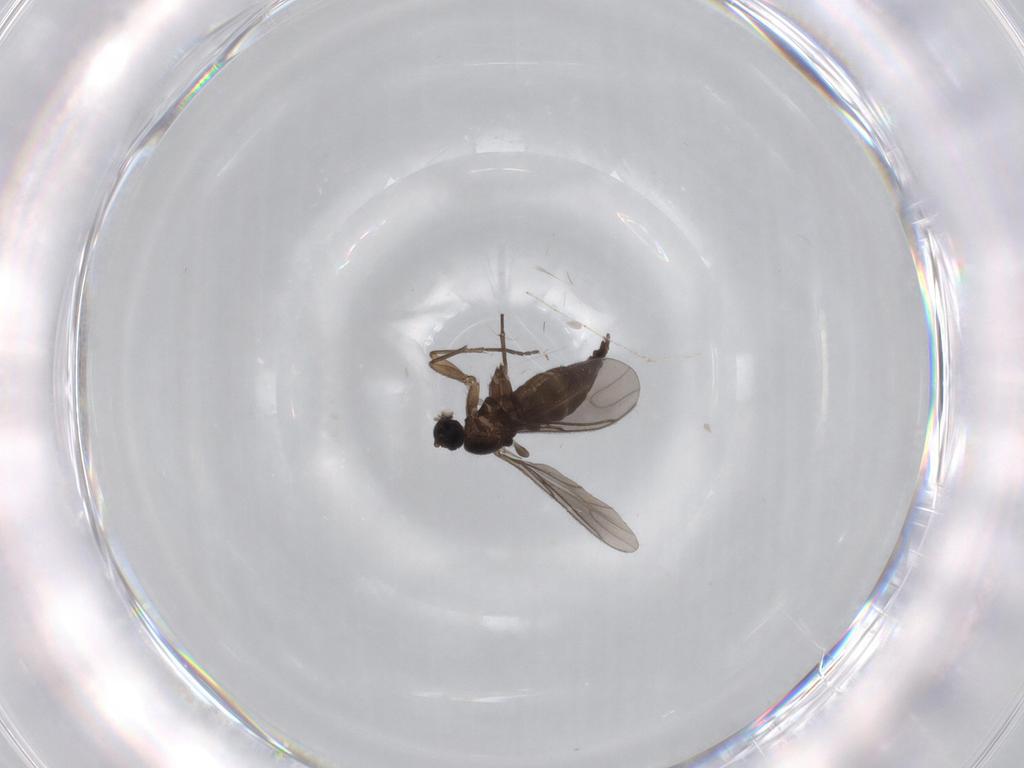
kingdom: Animalia
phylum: Arthropoda
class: Insecta
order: Diptera
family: Sciaridae
